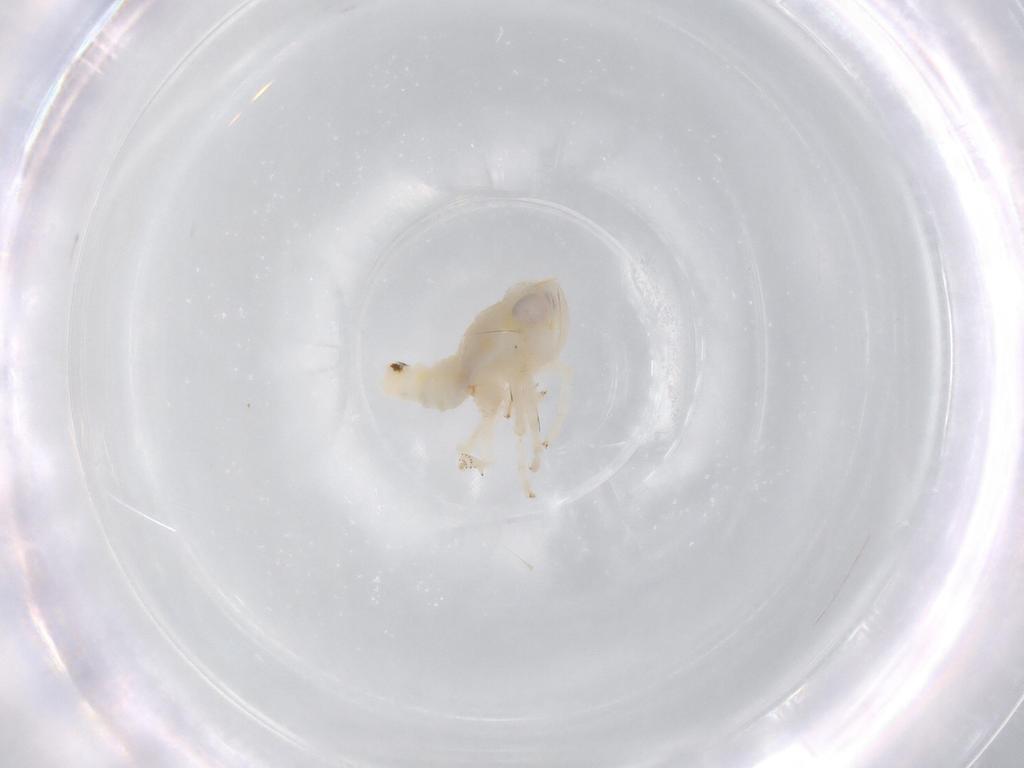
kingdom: Animalia
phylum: Arthropoda
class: Insecta
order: Hemiptera
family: Nogodinidae
